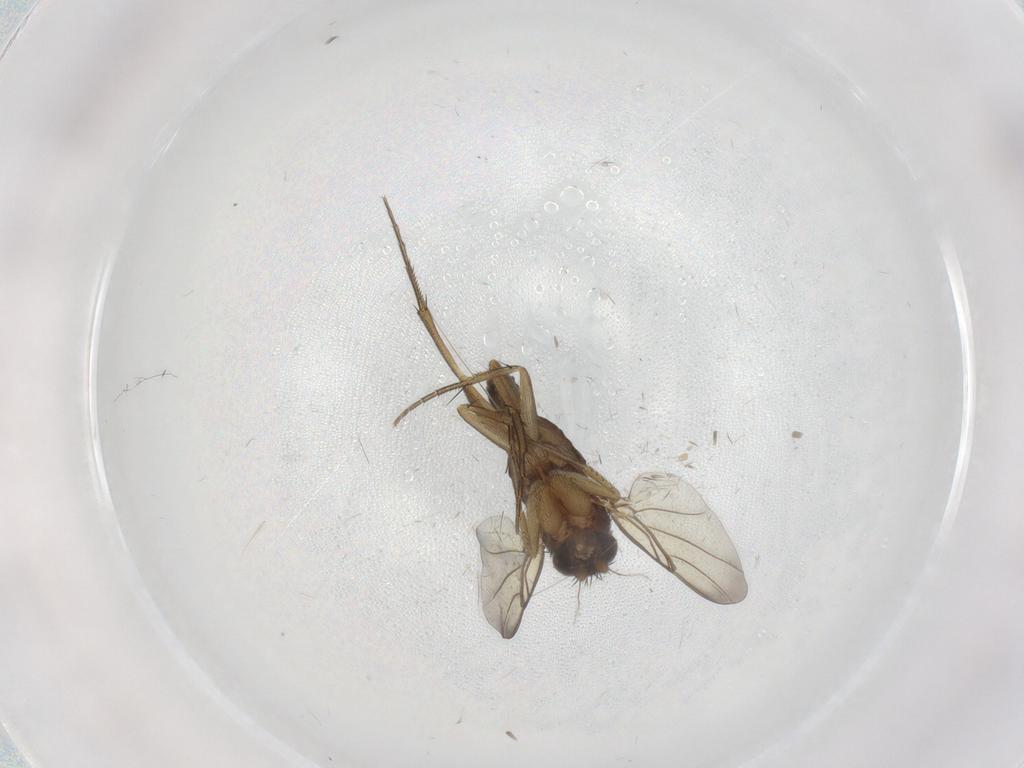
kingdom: Animalia
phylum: Arthropoda
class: Insecta
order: Diptera
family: Phoridae
